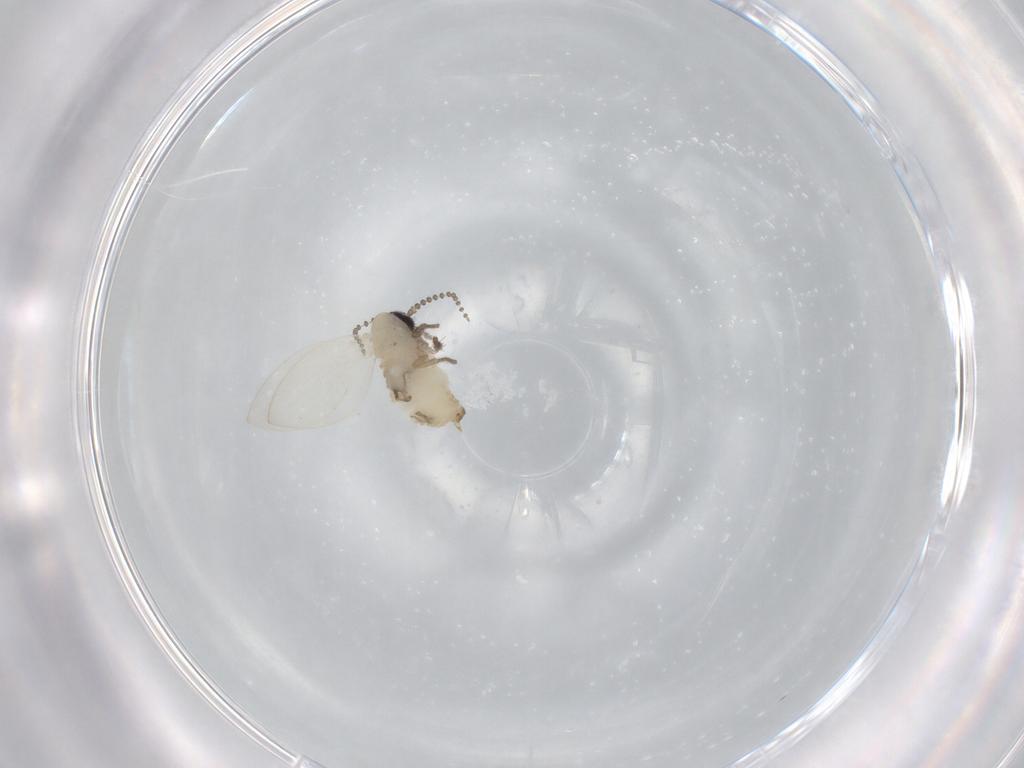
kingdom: Animalia
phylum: Arthropoda
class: Insecta
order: Diptera
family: Psychodidae
